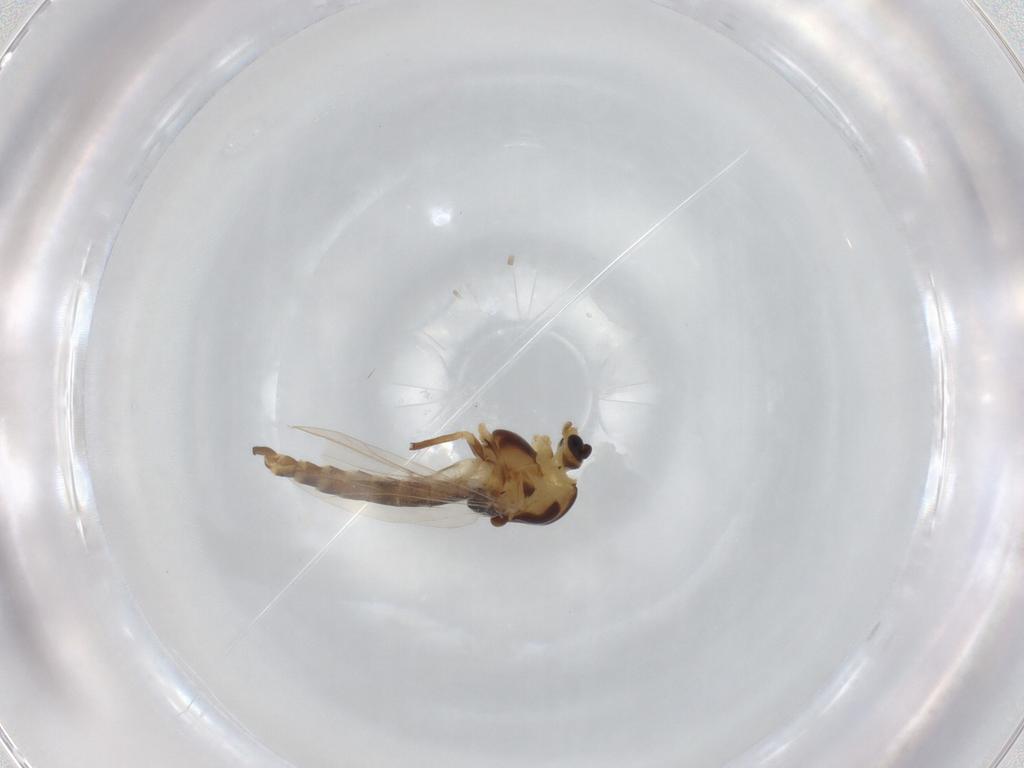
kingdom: Animalia
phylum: Arthropoda
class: Insecta
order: Diptera
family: Chironomidae
